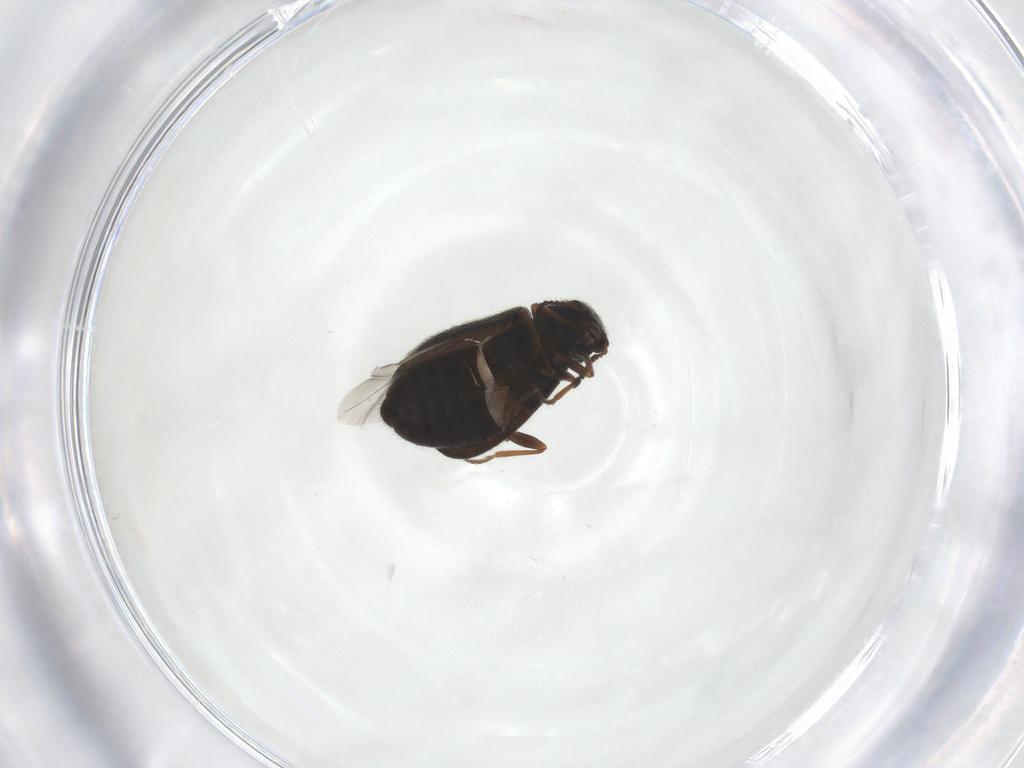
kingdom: Animalia
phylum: Arthropoda
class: Insecta
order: Coleoptera
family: Melyridae
